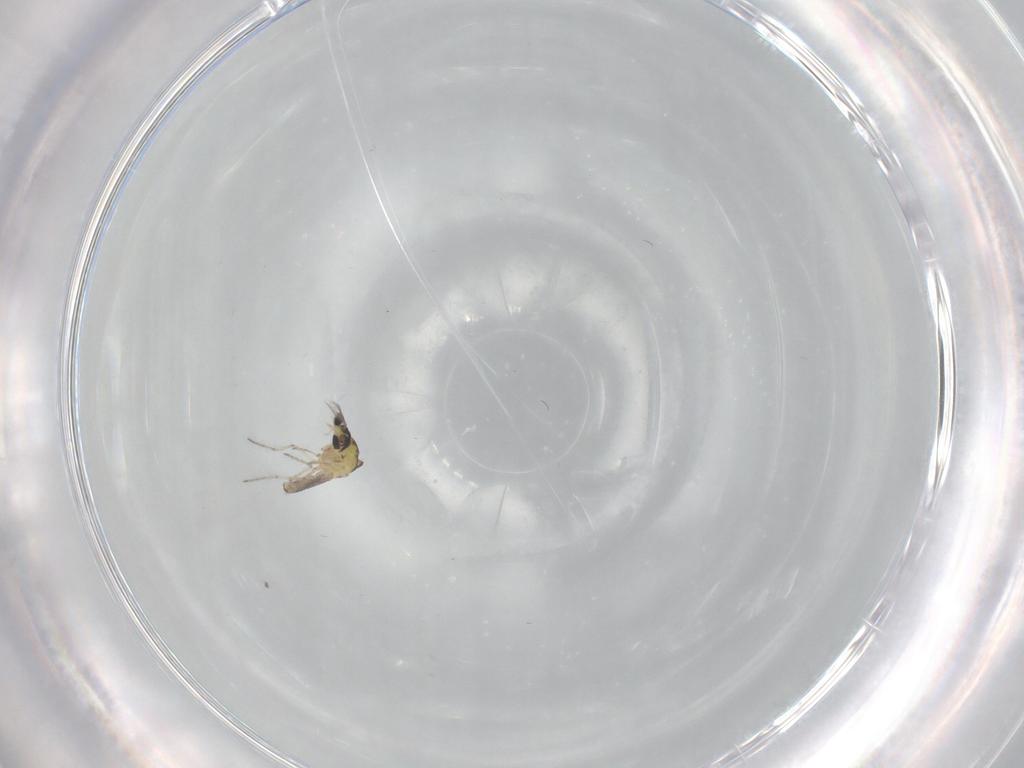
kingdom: Animalia
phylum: Arthropoda
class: Insecta
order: Diptera
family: Ceratopogonidae
